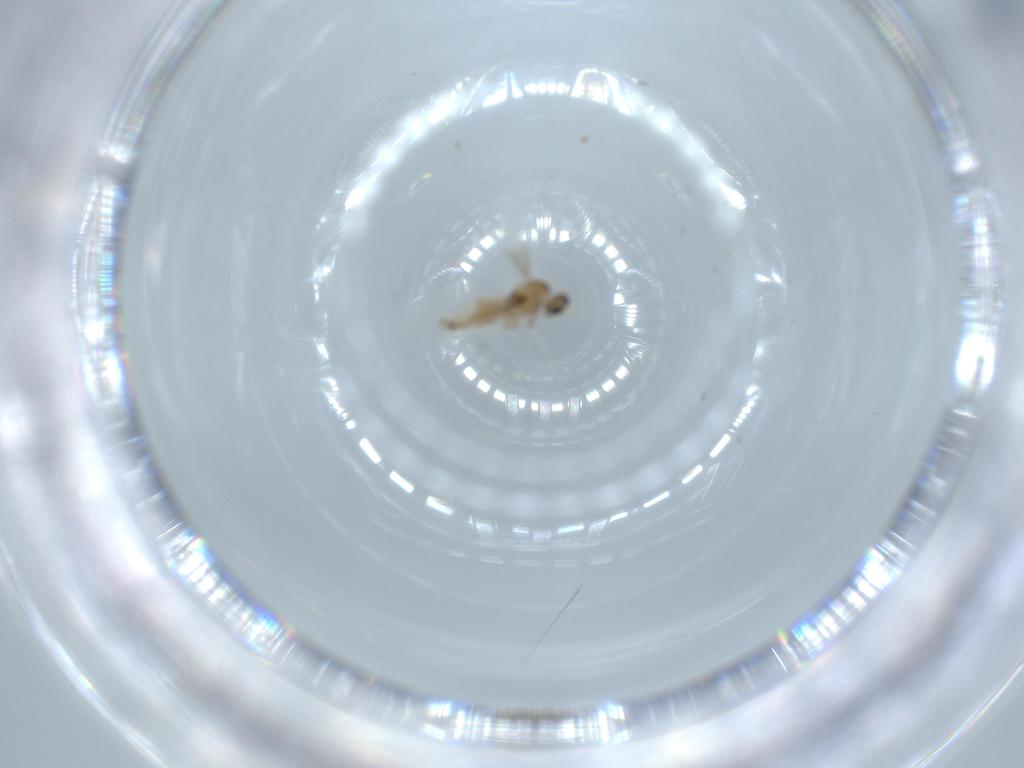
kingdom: Animalia
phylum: Arthropoda
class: Insecta
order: Diptera
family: Cecidomyiidae
